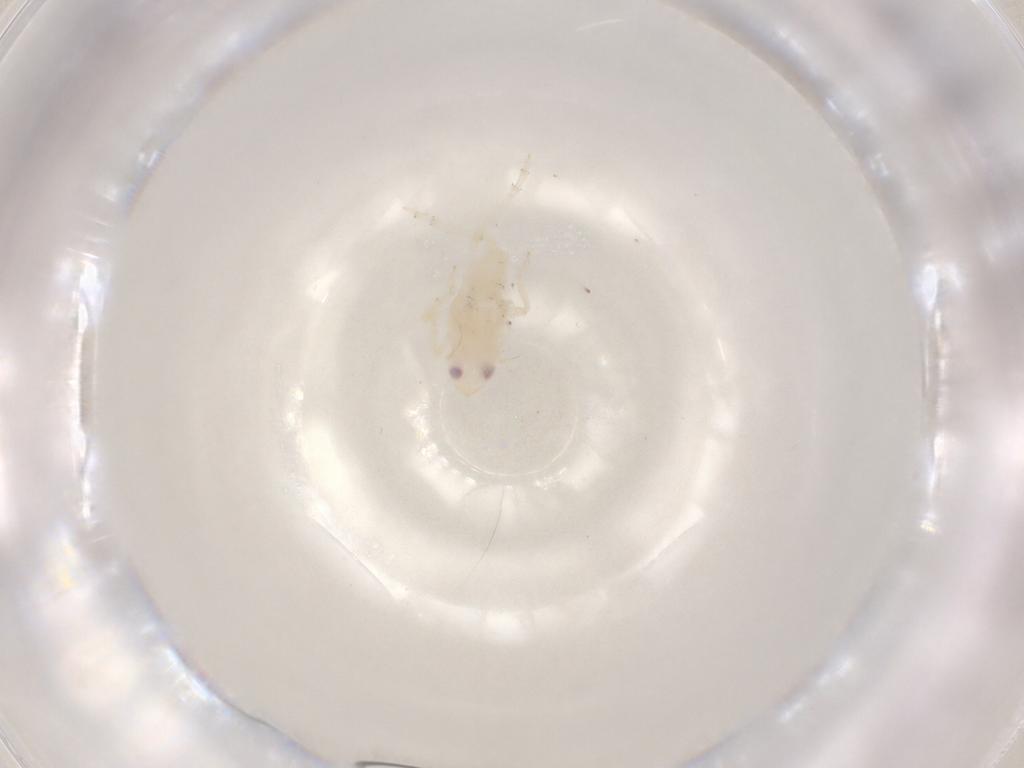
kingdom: Animalia
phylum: Arthropoda
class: Insecta
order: Hemiptera
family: Tropiduchidae
